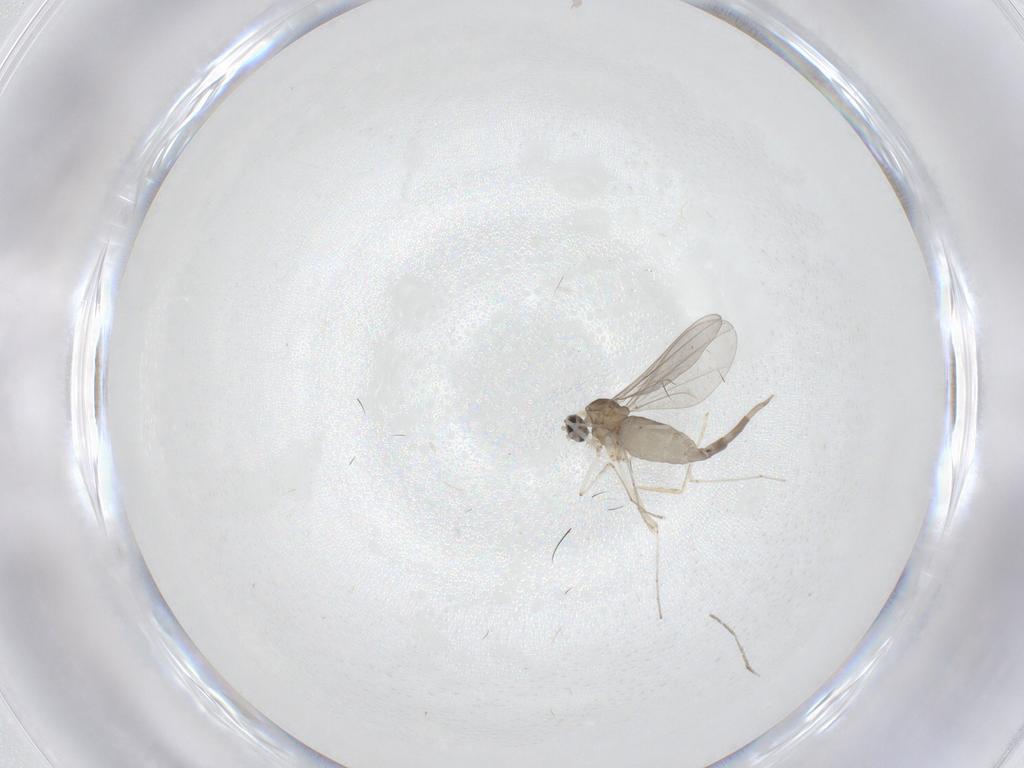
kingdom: Animalia
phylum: Arthropoda
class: Insecta
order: Diptera
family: Cecidomyiidae
